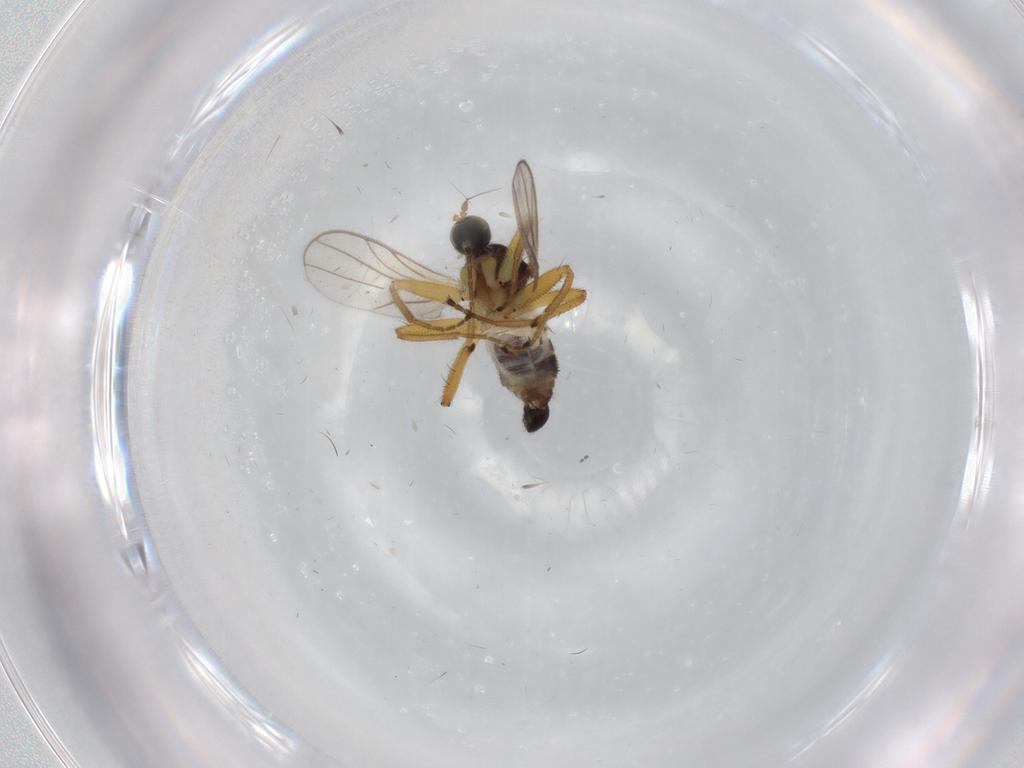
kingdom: Animalia
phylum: Arthropoda
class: Insecta
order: Diptera
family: Hybotidae
